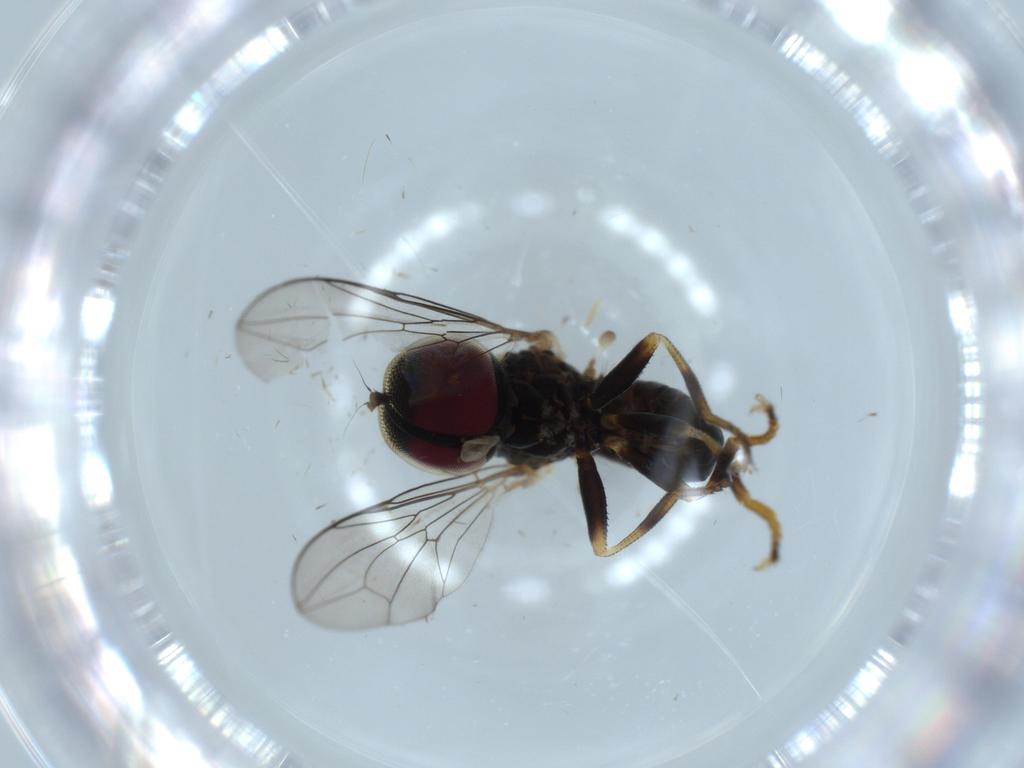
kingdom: Animalia
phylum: Arthropoda
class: Insecta
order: Diptera
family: Pipunculidae
